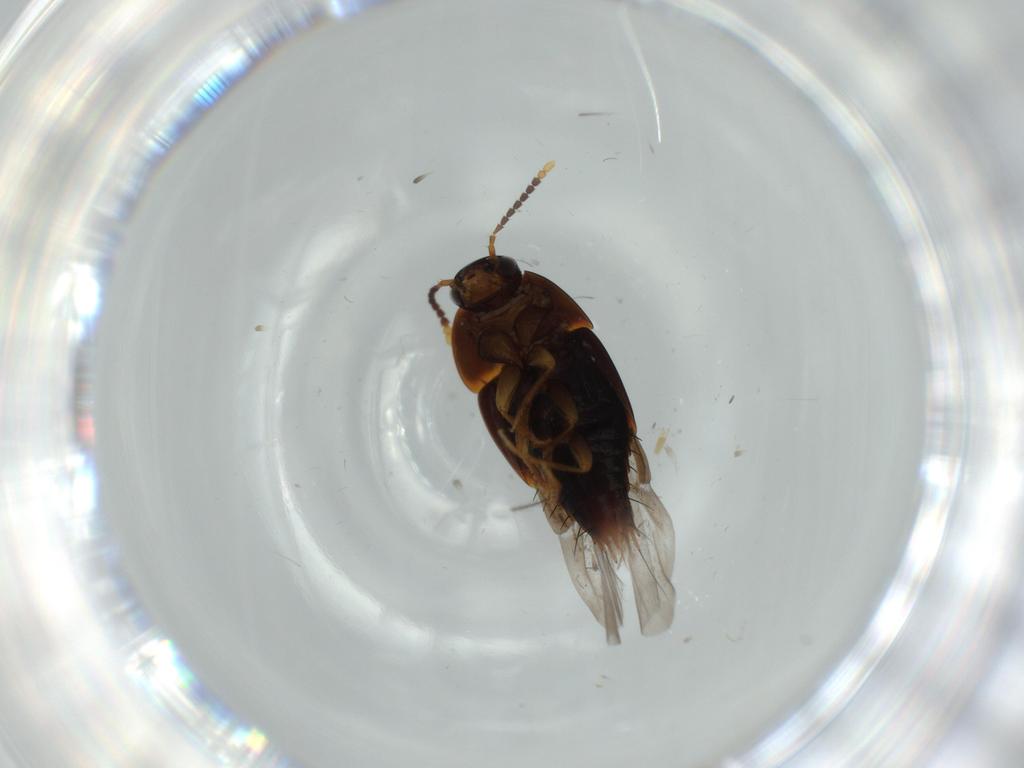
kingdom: Animalia
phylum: Arthropoda
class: Insecta
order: Coleoptera
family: Staphylinidae
